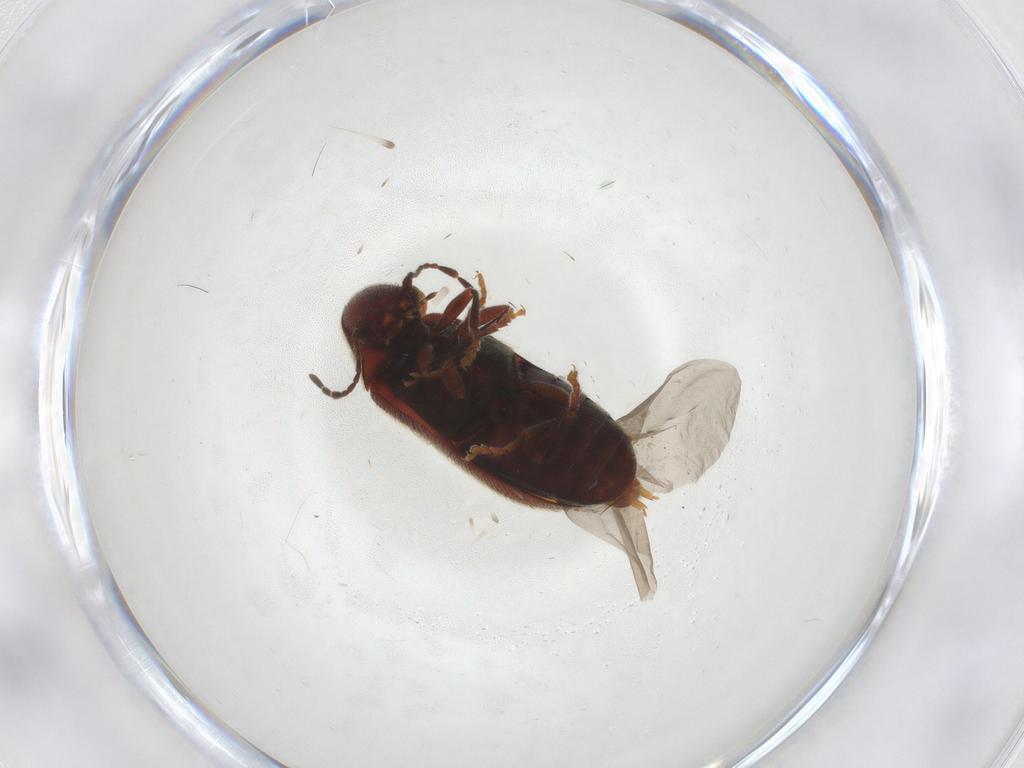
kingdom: Animalia
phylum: Arthropoda
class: Insecta
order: Coleoptera
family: Ptinidae
